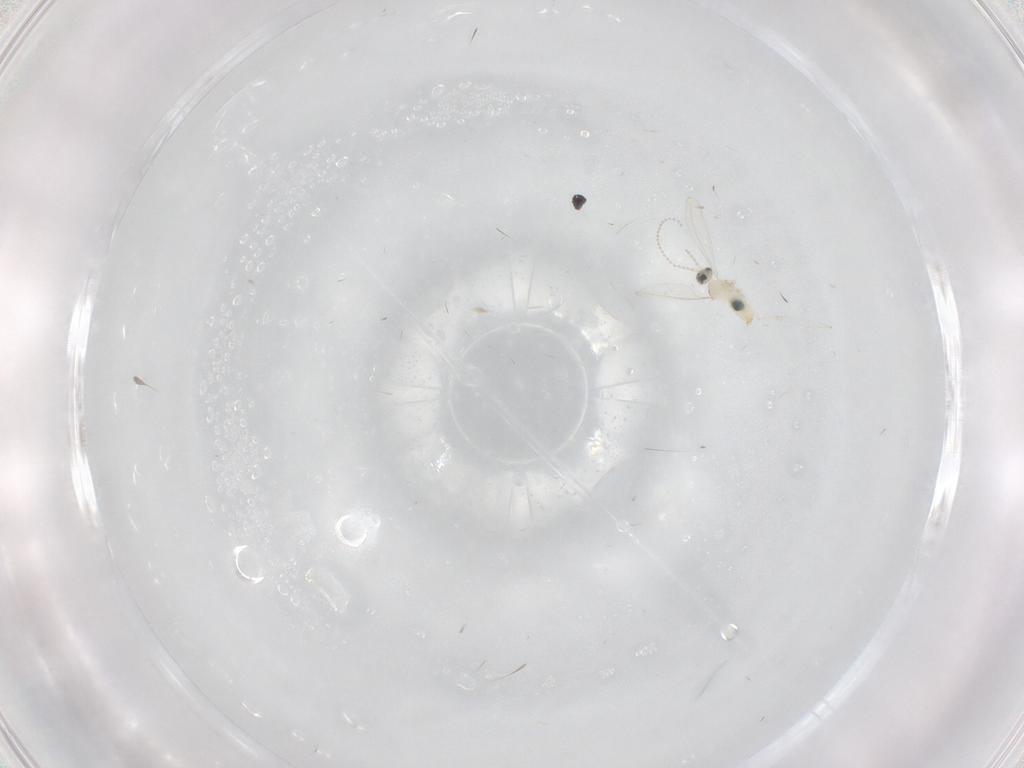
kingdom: Animalia
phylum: Arthropoda
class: Insecta
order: Diptera
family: Cecidomyiidae
